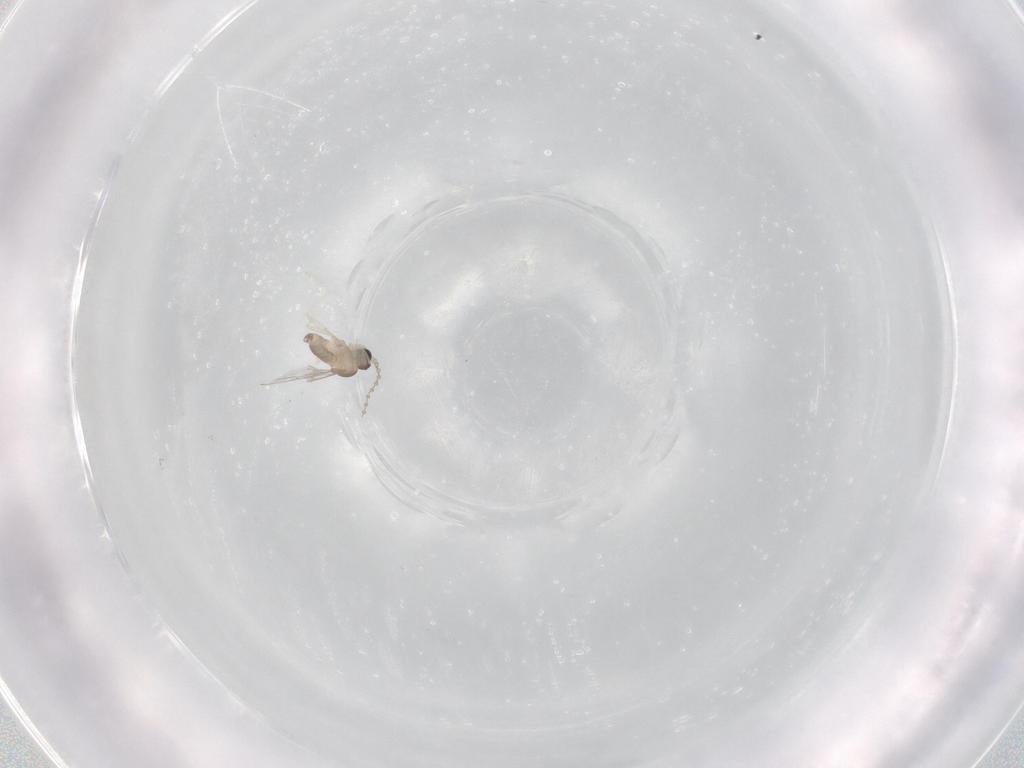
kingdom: Animalia
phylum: Arthropoda
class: Insecta
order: Diptera
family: Cecidomyiidae
